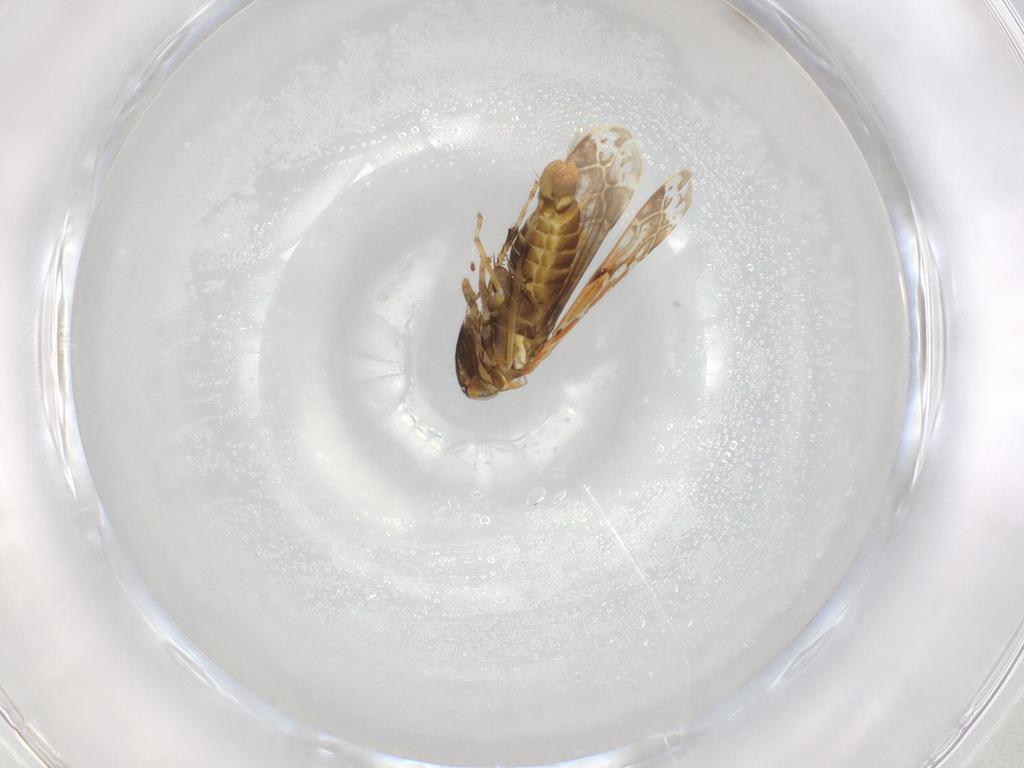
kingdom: Animalia
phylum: Arthropoda
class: Insecta
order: Hemiptera
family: Cicadellidae
